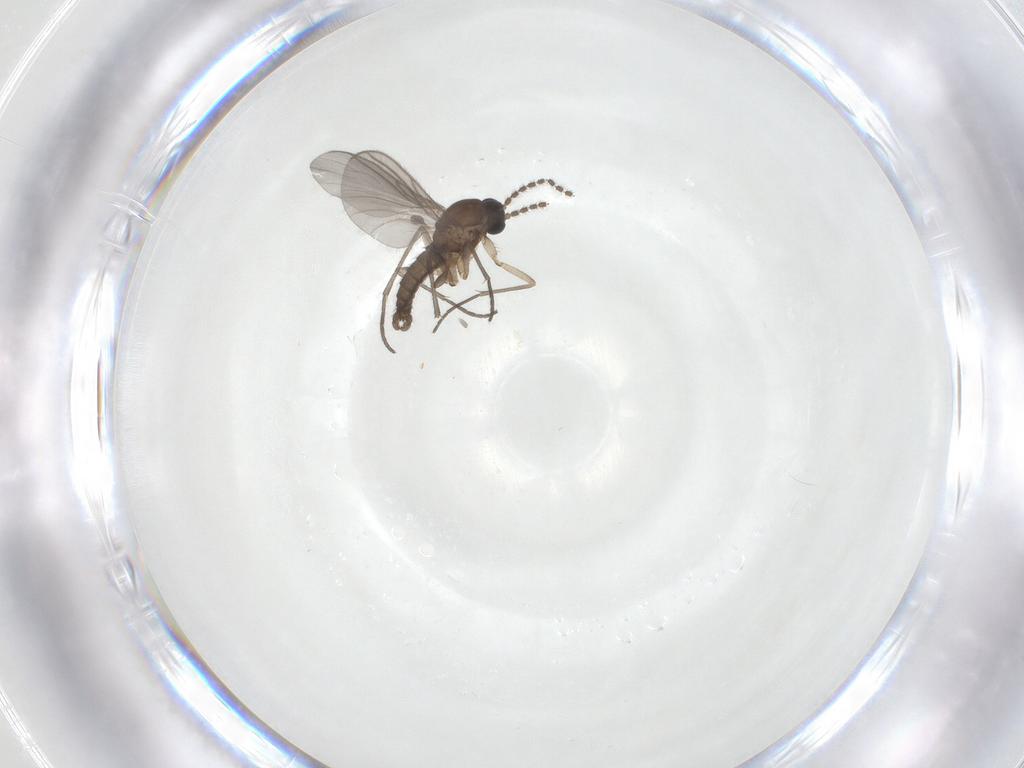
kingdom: Animalia
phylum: Arthropoda
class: Insecta
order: Diptera
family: Sciaridae
